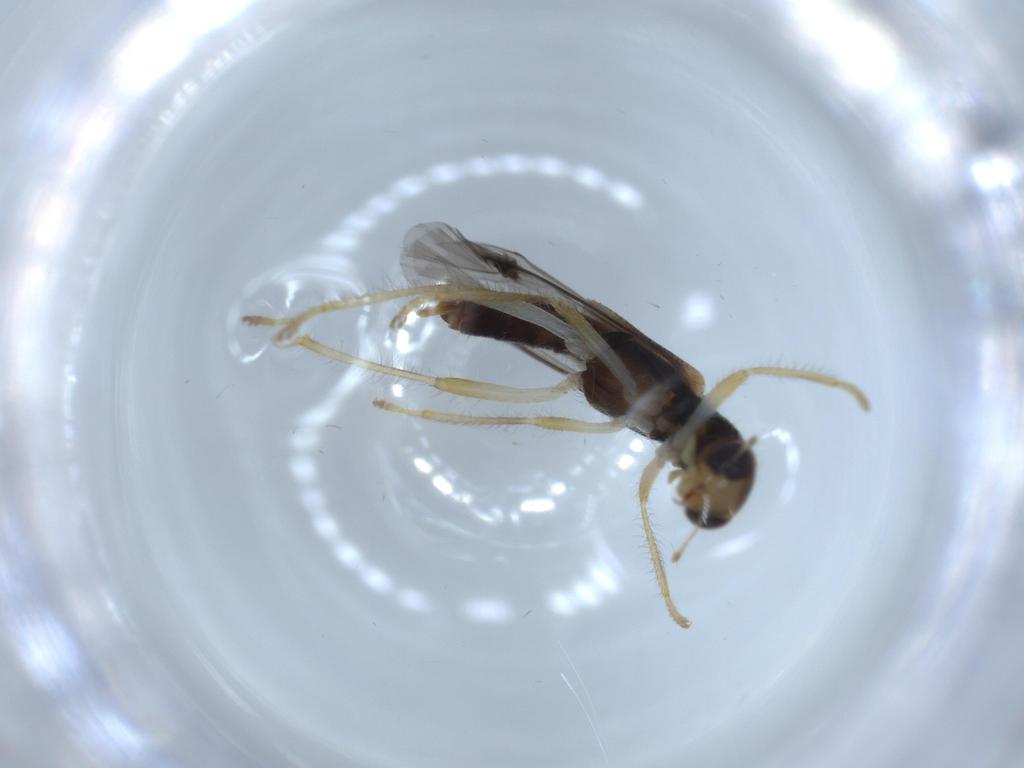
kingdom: Animalia
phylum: Arthropoda
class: Insecta
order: Coleoptera
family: Cleridae
